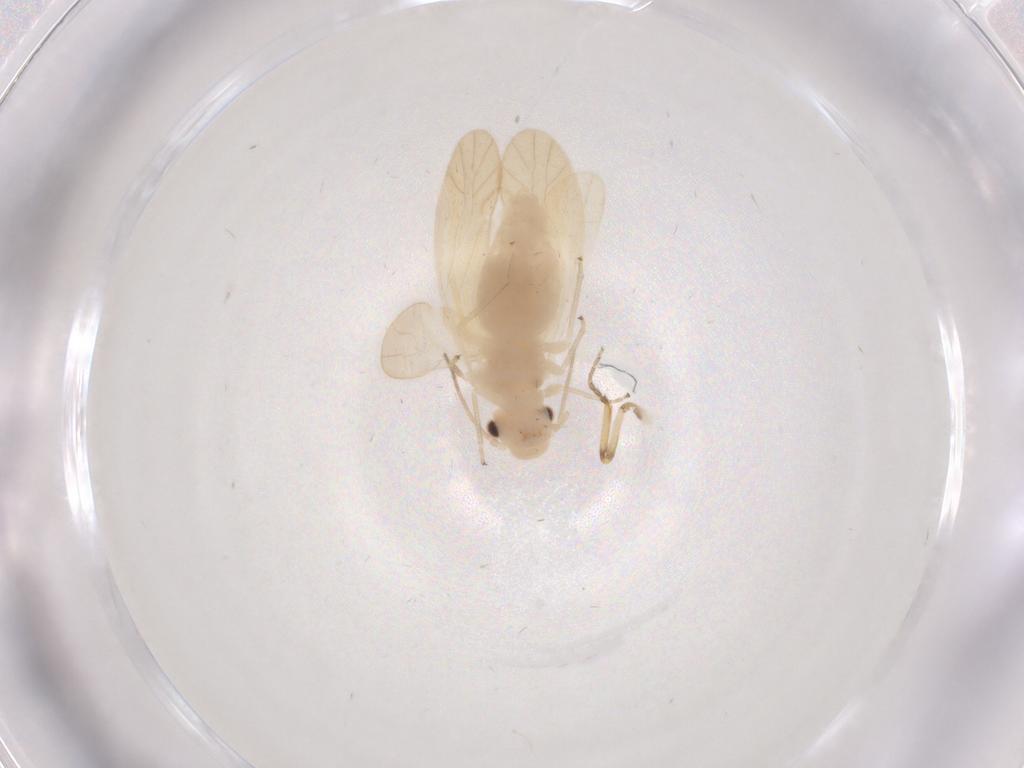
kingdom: Animalia
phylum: Arthropoda
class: Insecta
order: Psocodea
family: Caeciliusidae
